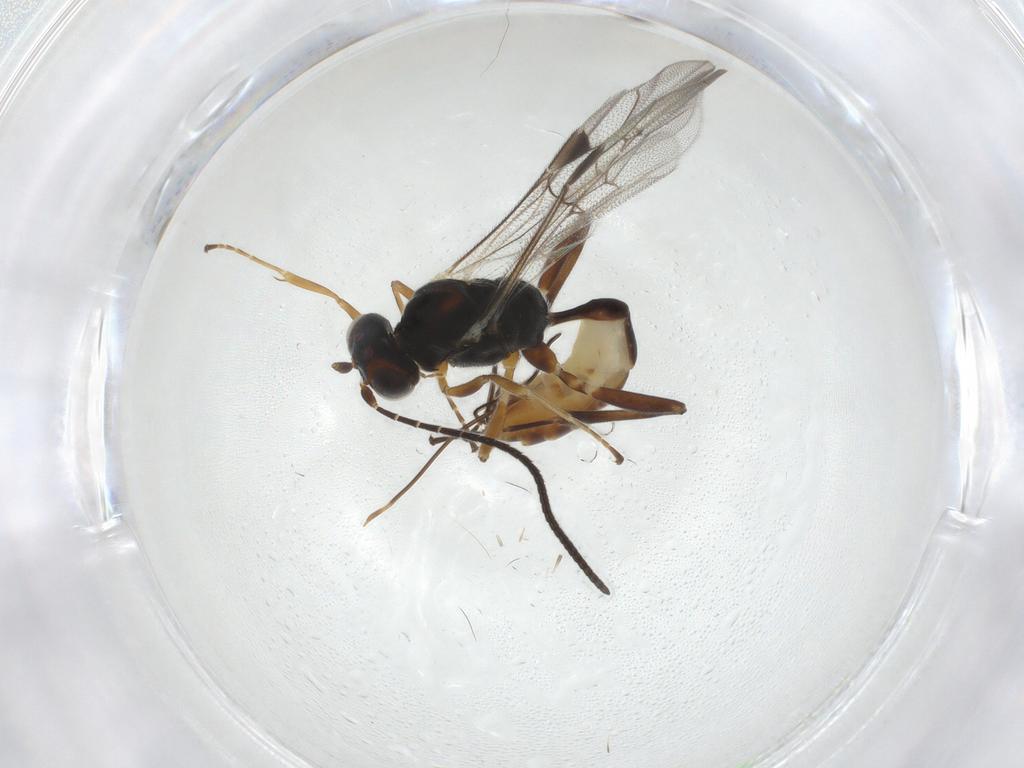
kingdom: Animalia
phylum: Arthropoda
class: Insecta
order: Hymenoptera
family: Ichneumonidae
